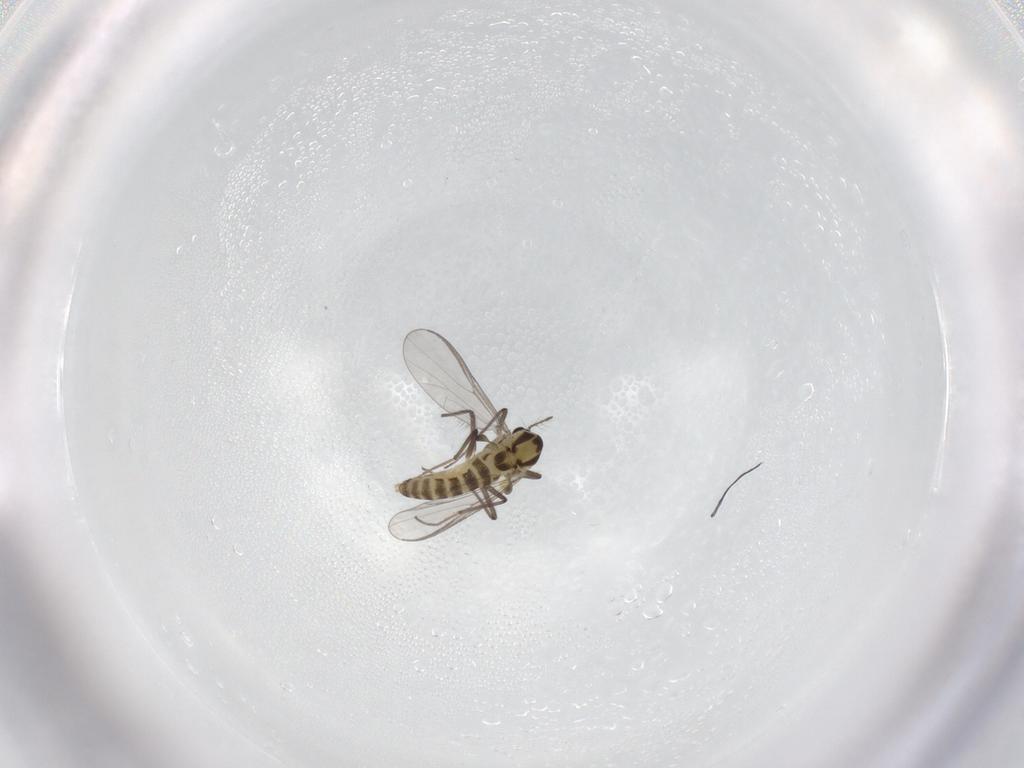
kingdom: Animalia
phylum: Arthropoda
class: Insecta
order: Diptera
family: Chironomidae
